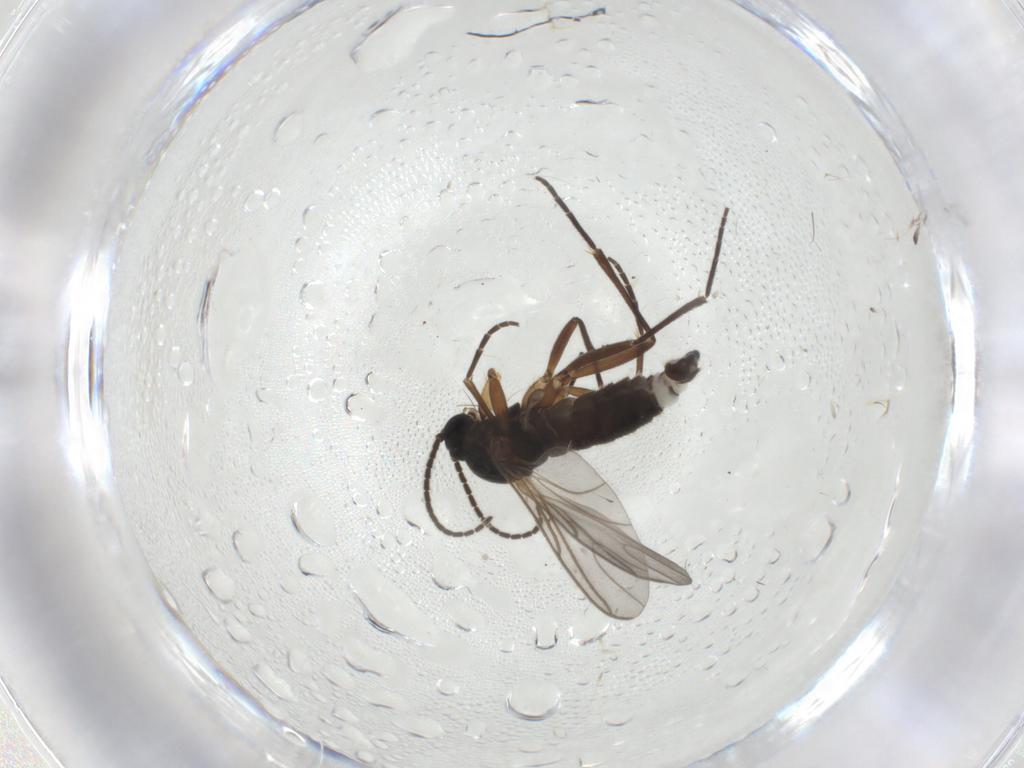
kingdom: Animalia
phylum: Arthropoda
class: Insecta
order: Diptera
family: Sciaridae
